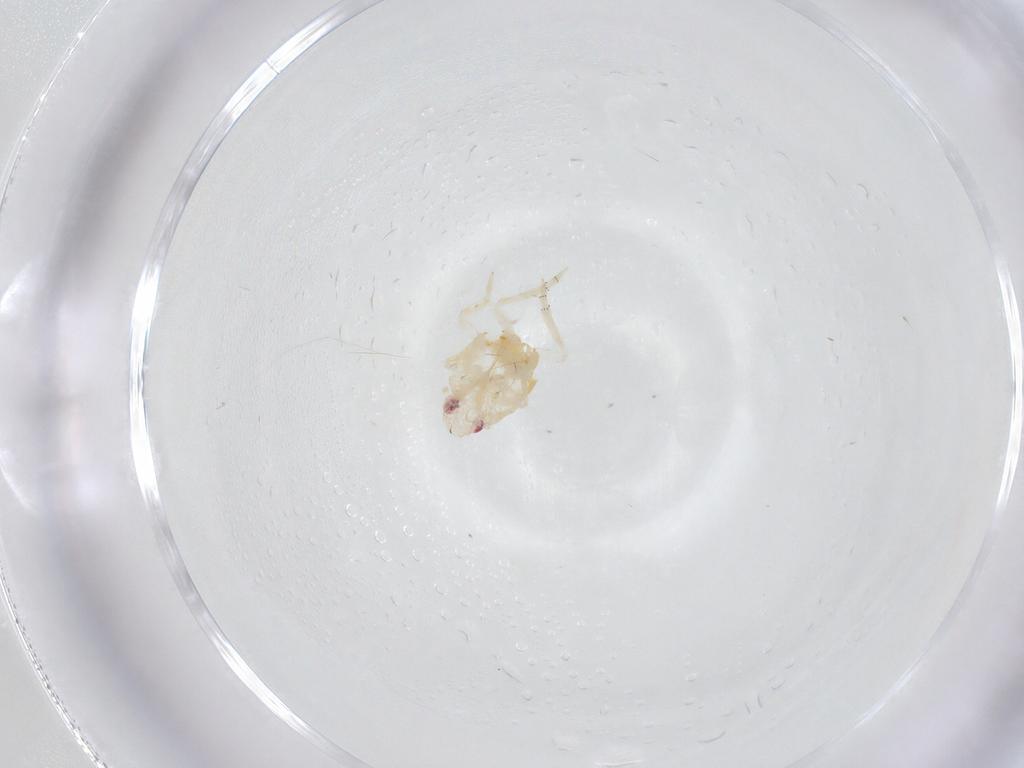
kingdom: Animalia
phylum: Arthropoda
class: Insecta
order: Hemiptera
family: Fulgoroidea_incertae_sedis
